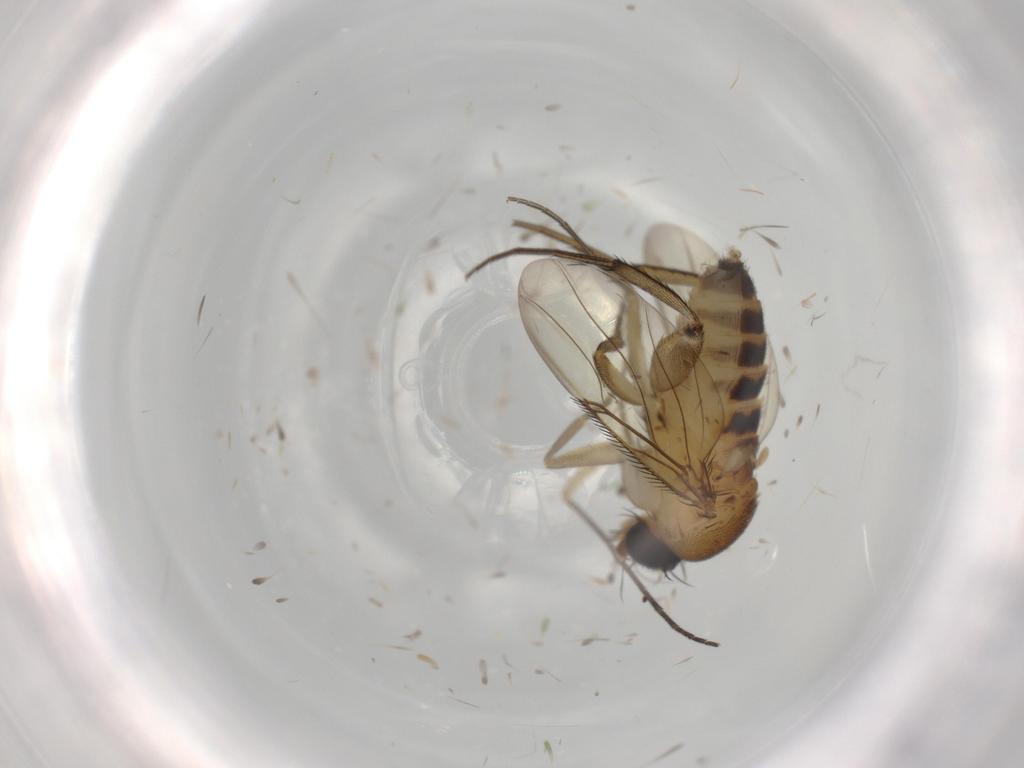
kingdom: Animalia
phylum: Arthropoda
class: Insecta
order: Diptera
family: Phoridae
